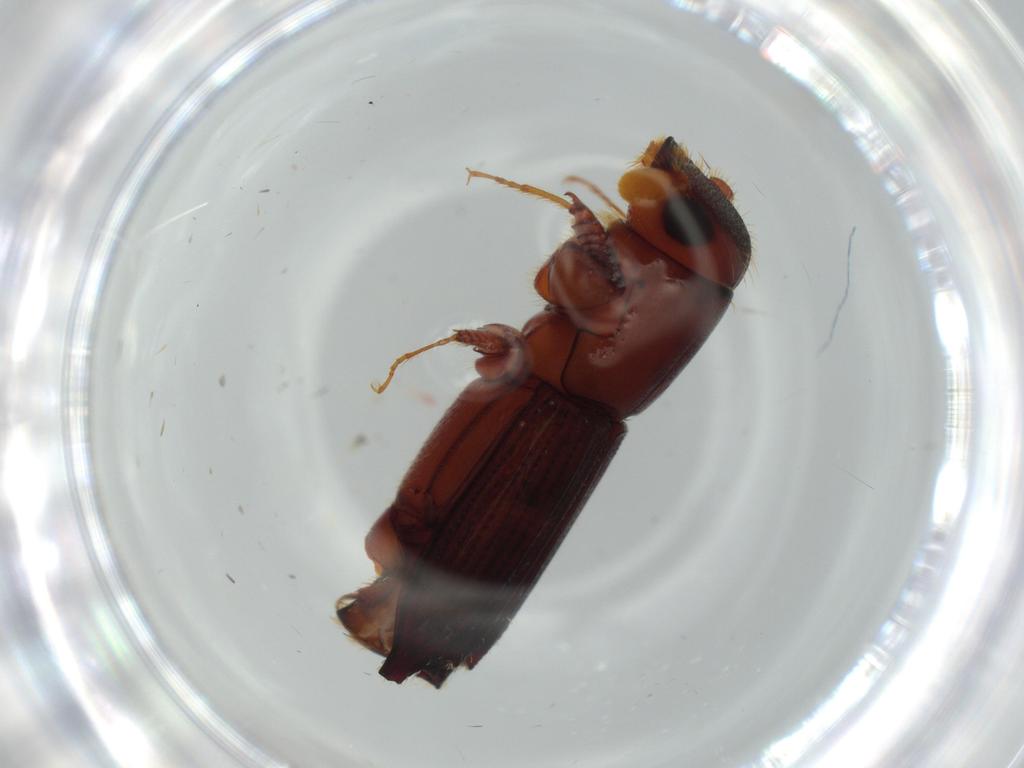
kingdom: Animalia
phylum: Arthropoda
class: Insecta
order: Coleoptera
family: Curculionidae
